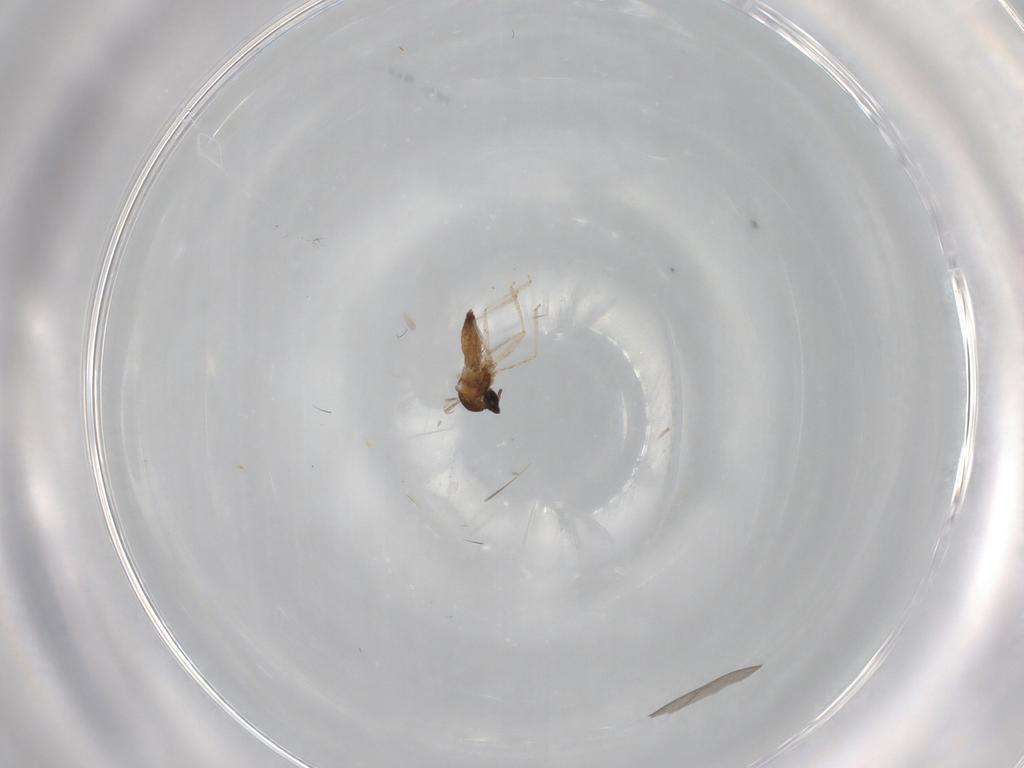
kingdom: Animalia
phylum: Arthropoda
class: Insecta
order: Diptera
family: Cecidomyiidae
